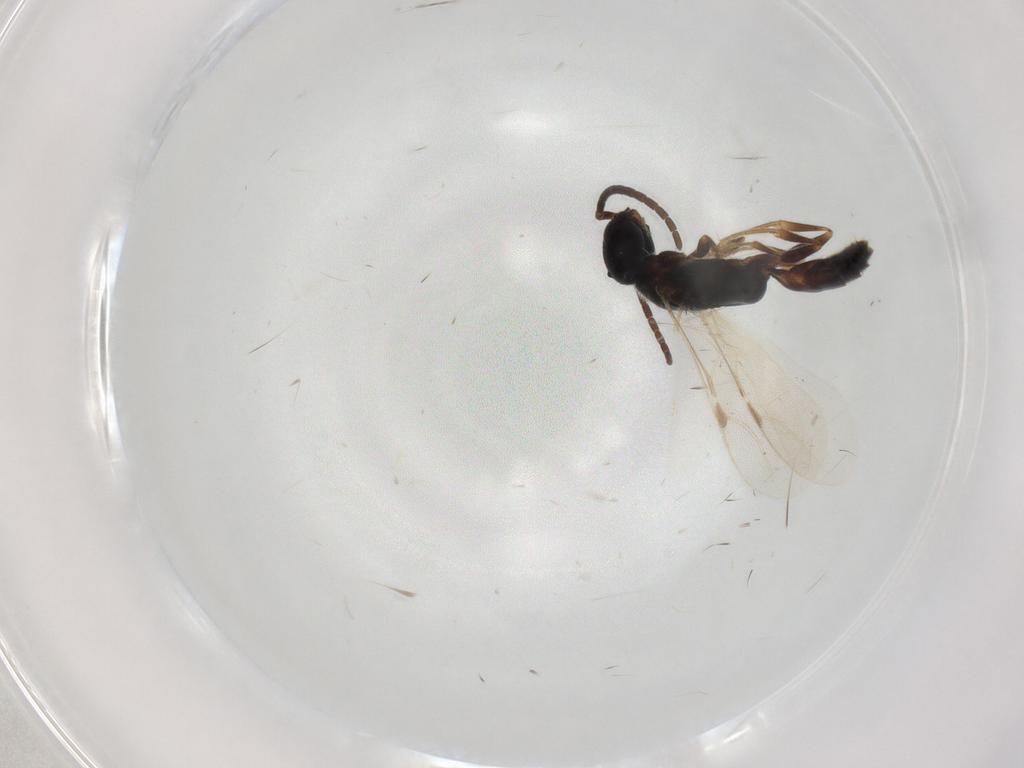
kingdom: Animalia
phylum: Arthropoda
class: Insecta
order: Hymenoptera
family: Bethylidae
